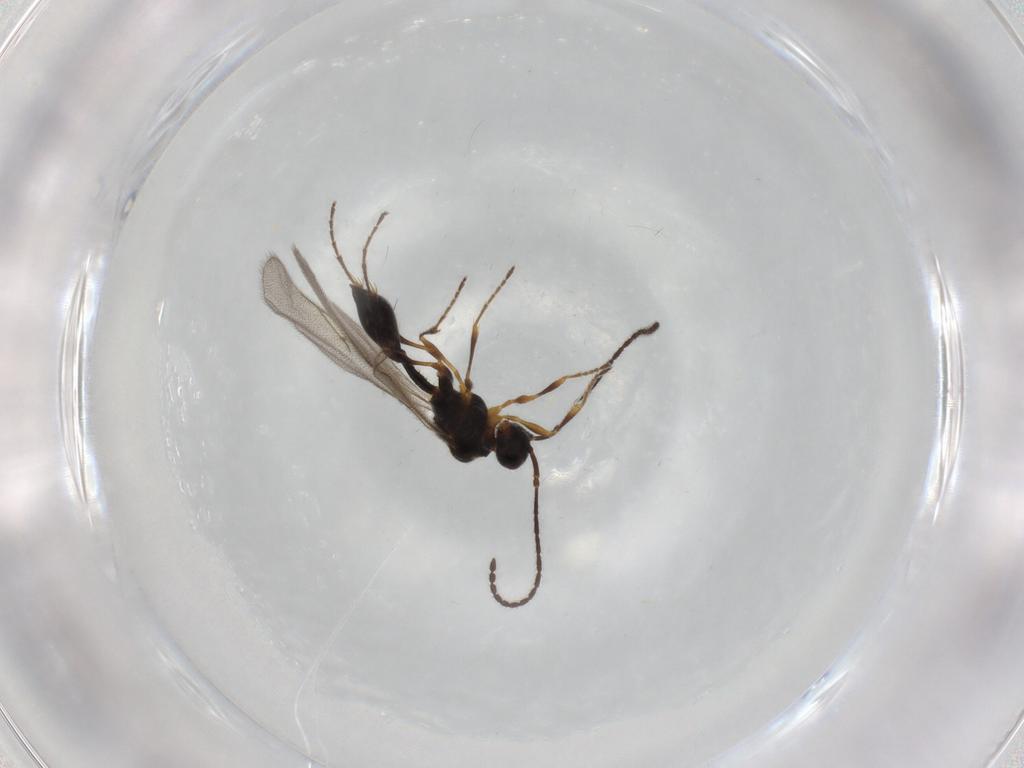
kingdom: Animalia
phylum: Arthropoda
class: Insecta
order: Hymenoptera
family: Diapriidae
